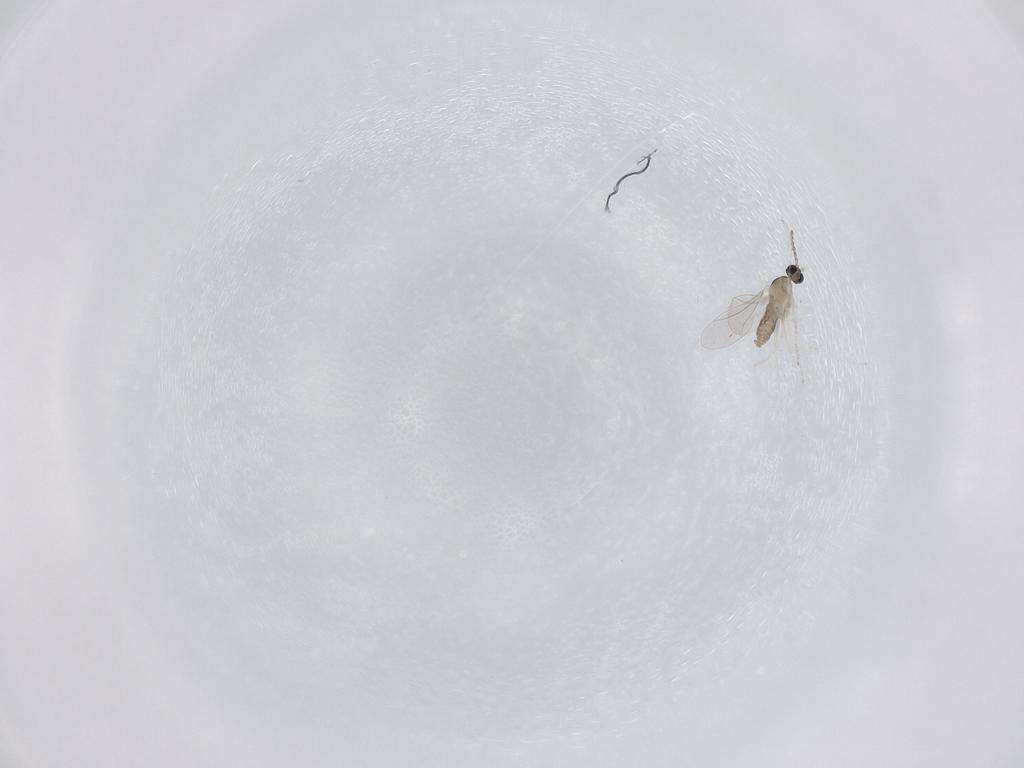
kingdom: Animalia
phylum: Arthropoda
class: Insecta
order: Diptera
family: Cecidomyiidae
